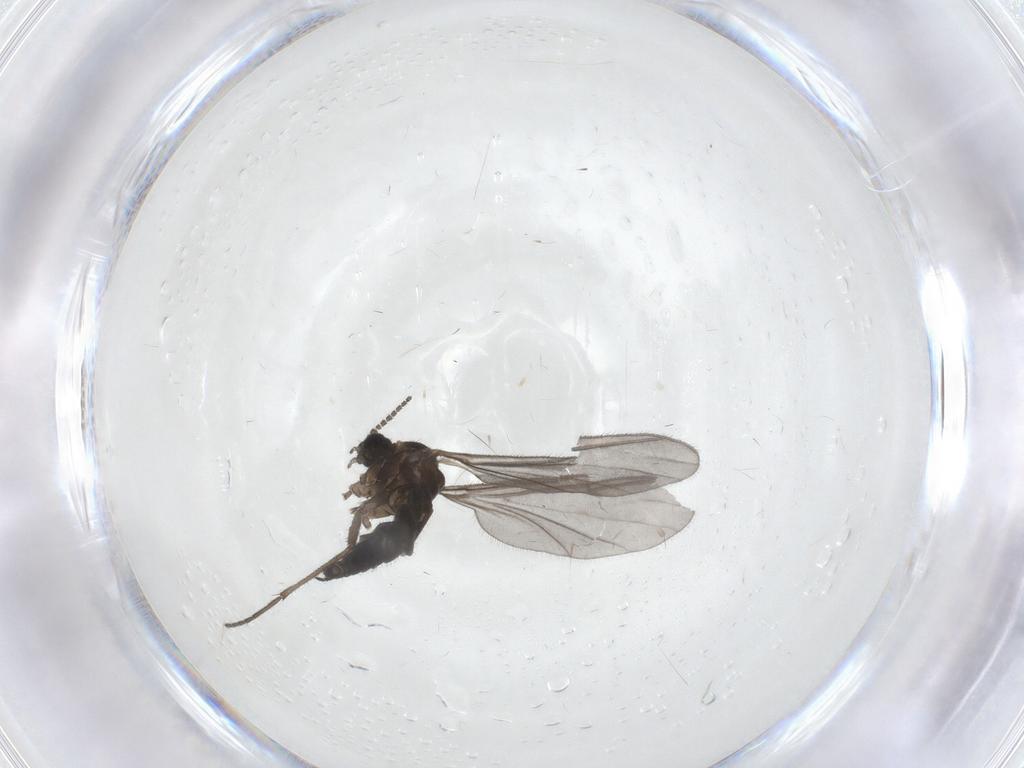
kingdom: Animalia
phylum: Arthropoda
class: Insecta
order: Diptera
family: Sciaridae
